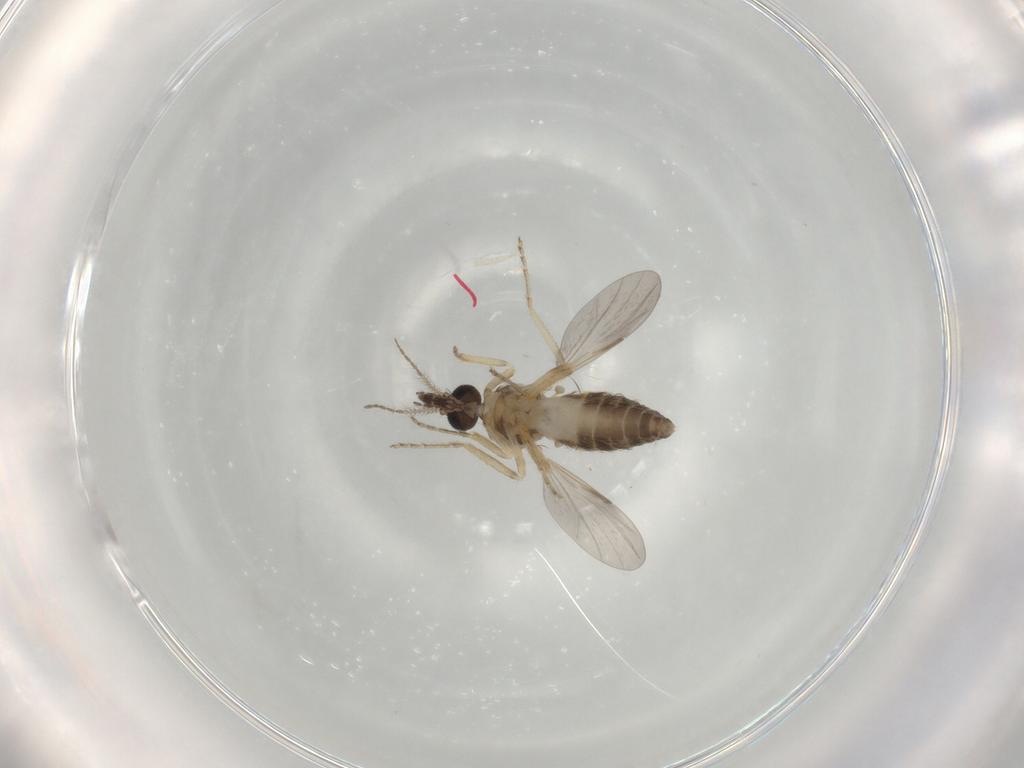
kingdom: Animalia
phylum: Arthropoda
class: Insecta
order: Diptera
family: Ceratopogonidae
